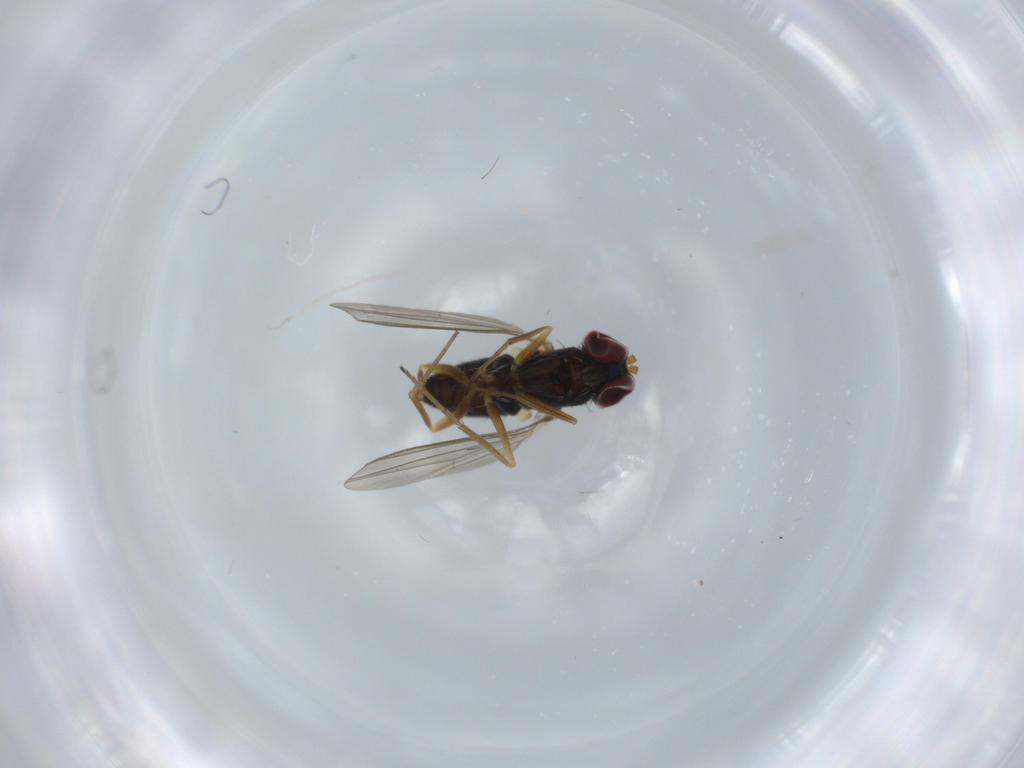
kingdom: Animalia
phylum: Arthropoda
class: Insecta
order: Diptera
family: Dolichopodidae
